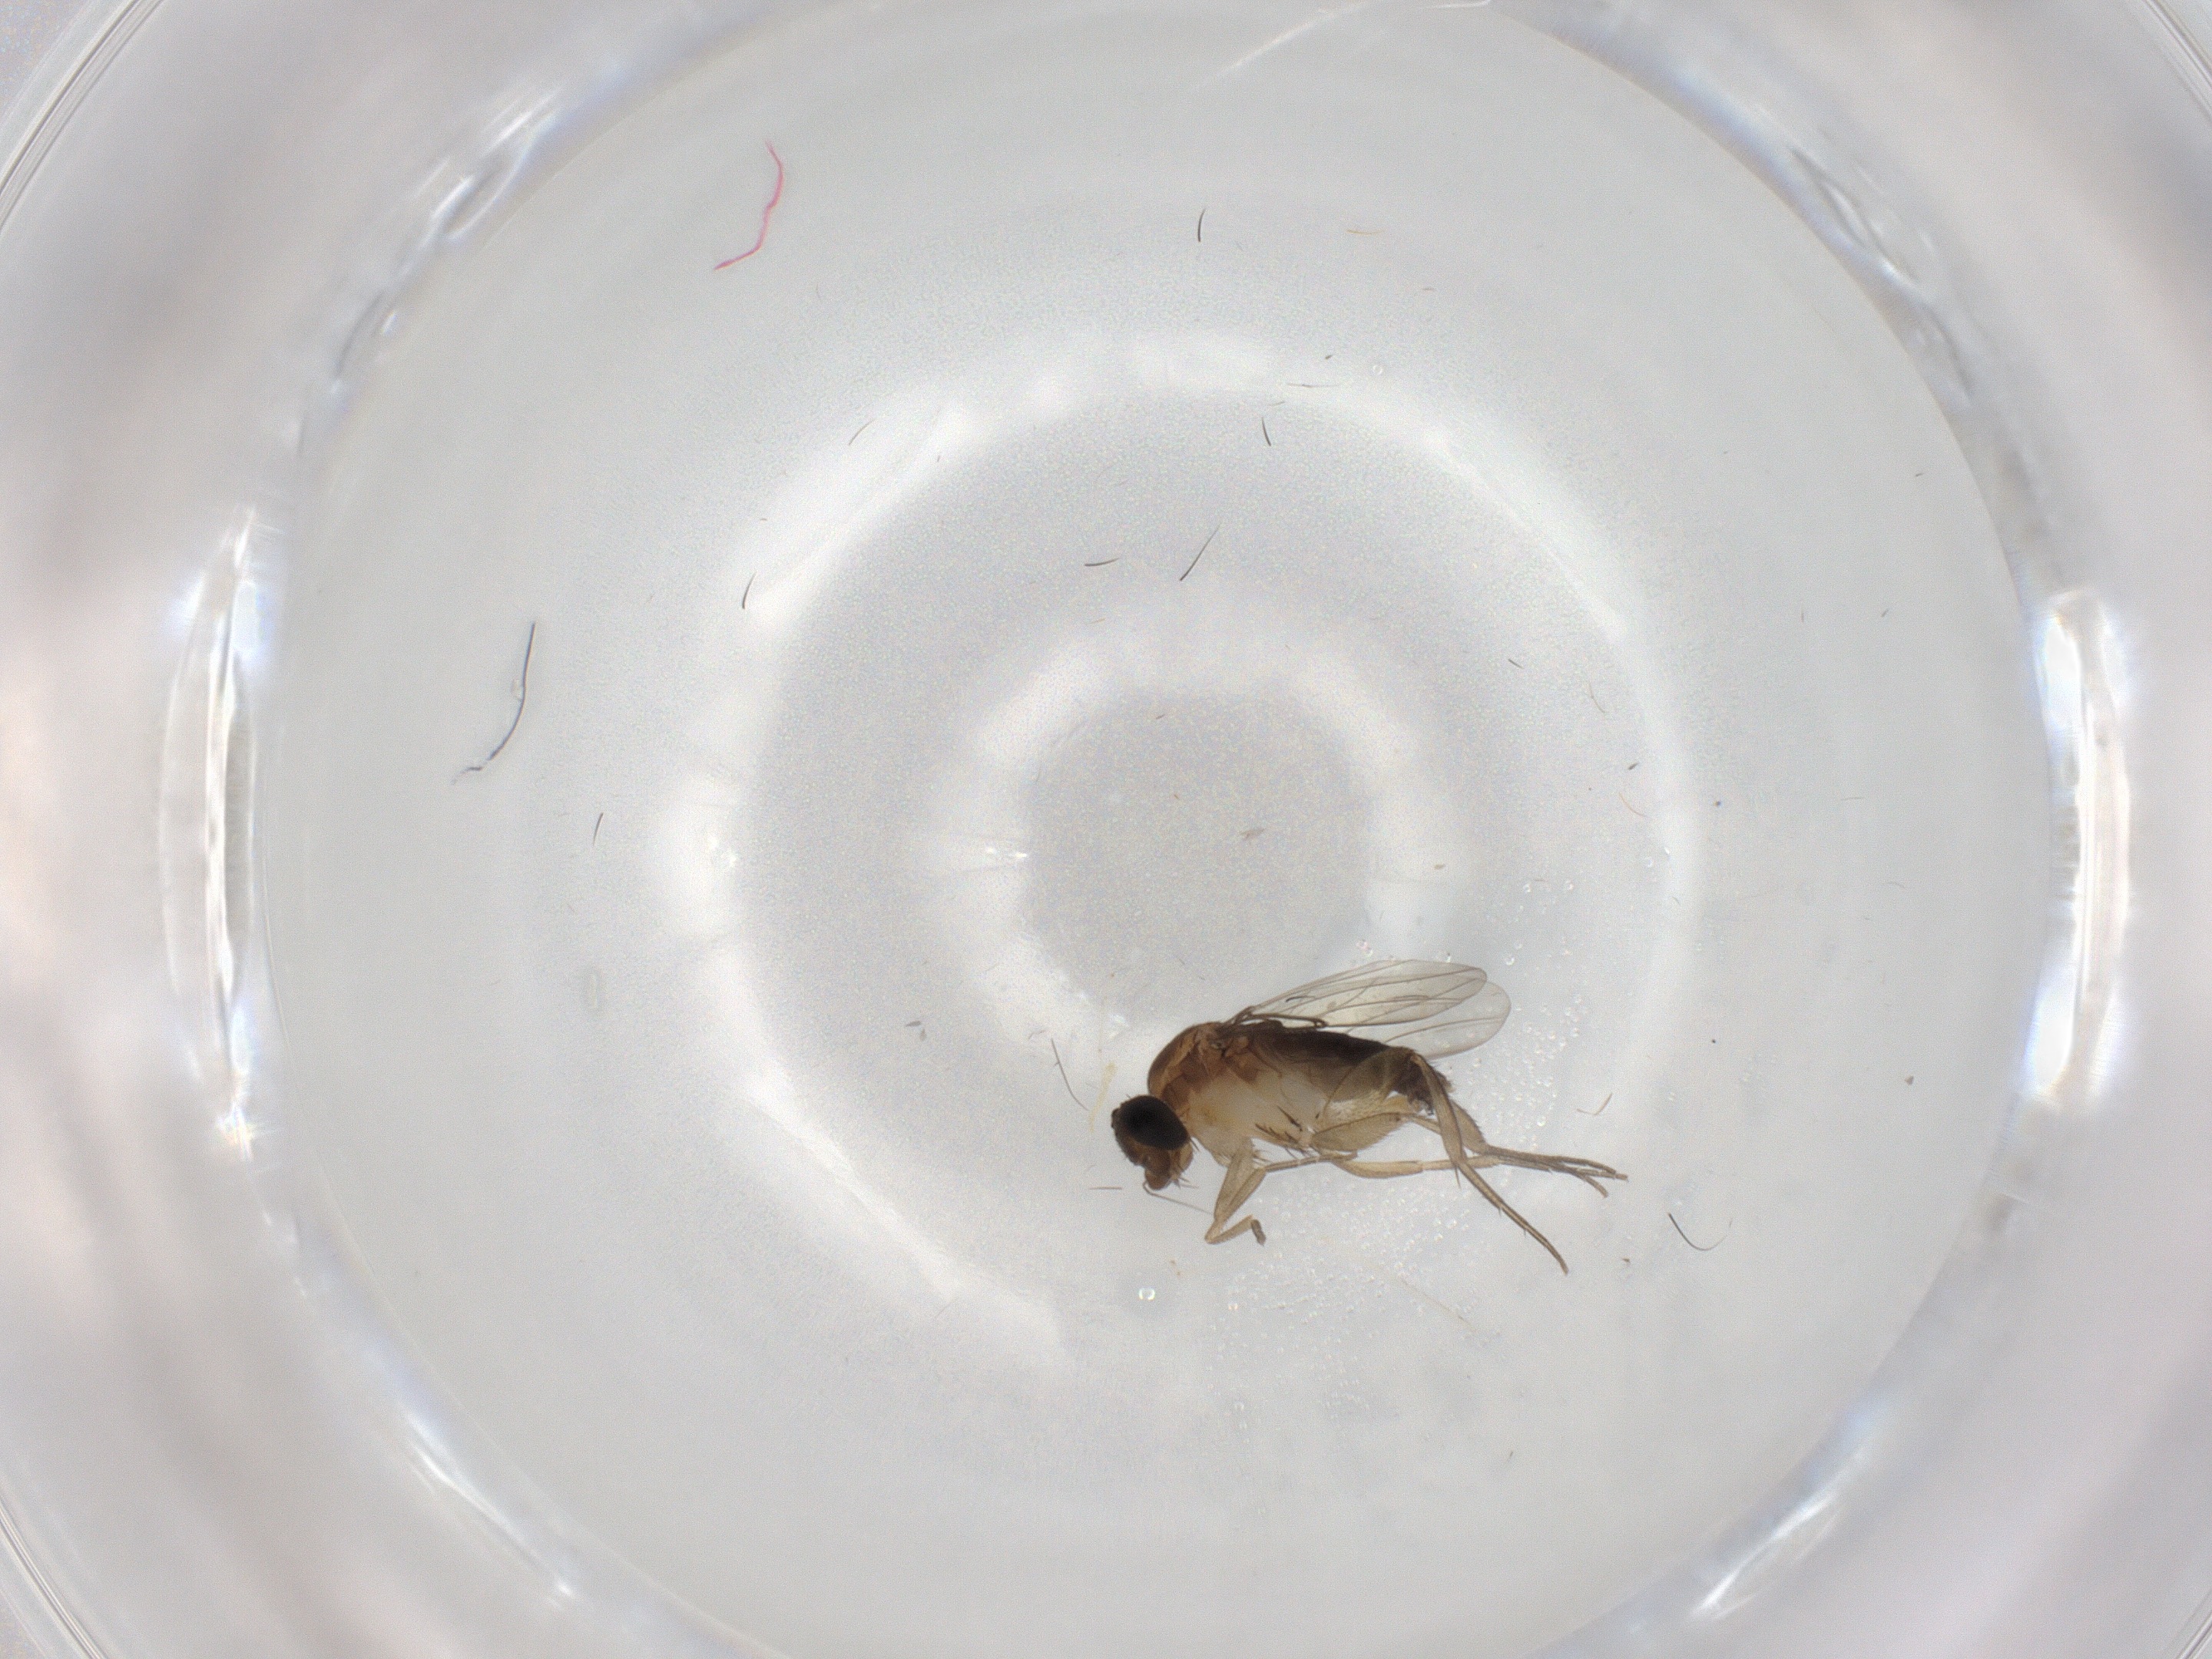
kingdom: Animalia
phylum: Arthropoda
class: Insecta
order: Diptera
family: Phoridae
